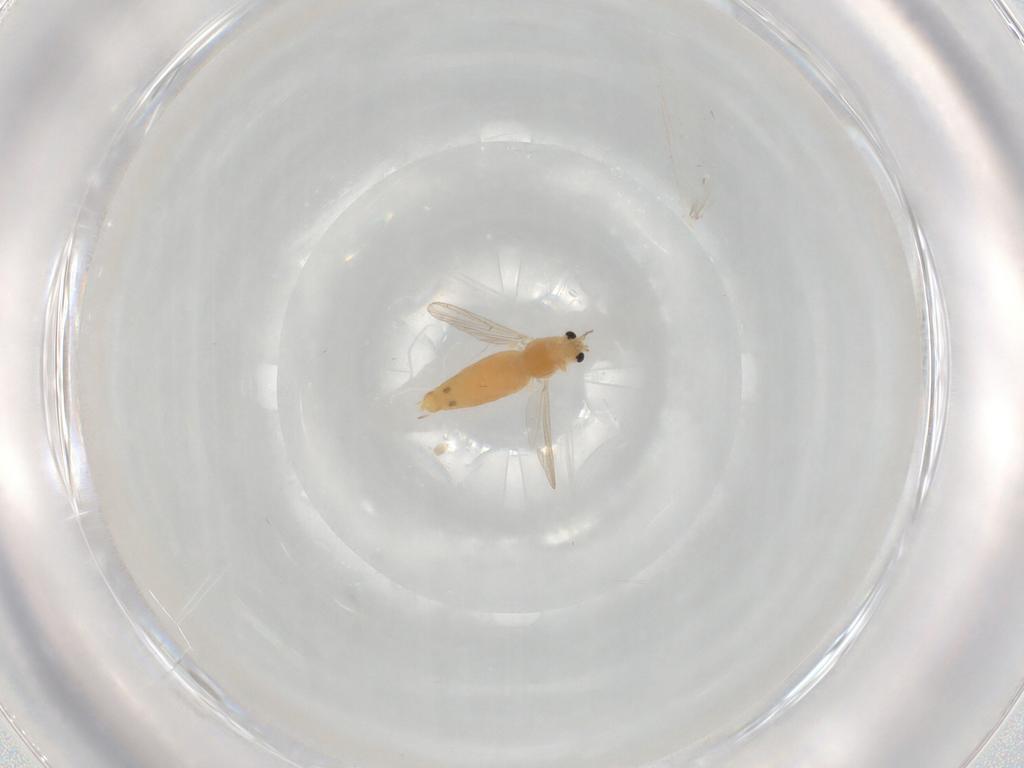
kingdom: Animalia
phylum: Arthropoda
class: Insecta
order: Diptera
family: Chironomidae
